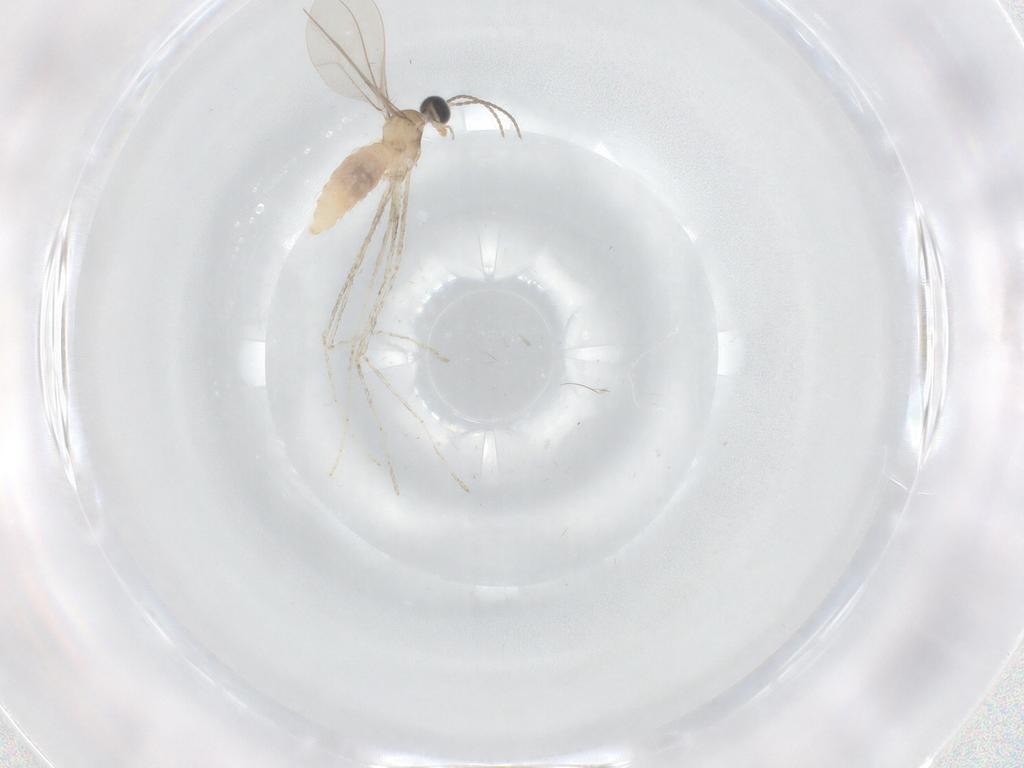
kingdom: Animalia
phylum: Arthropoda
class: Insecta
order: Diptera
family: Cecidomyiidae
